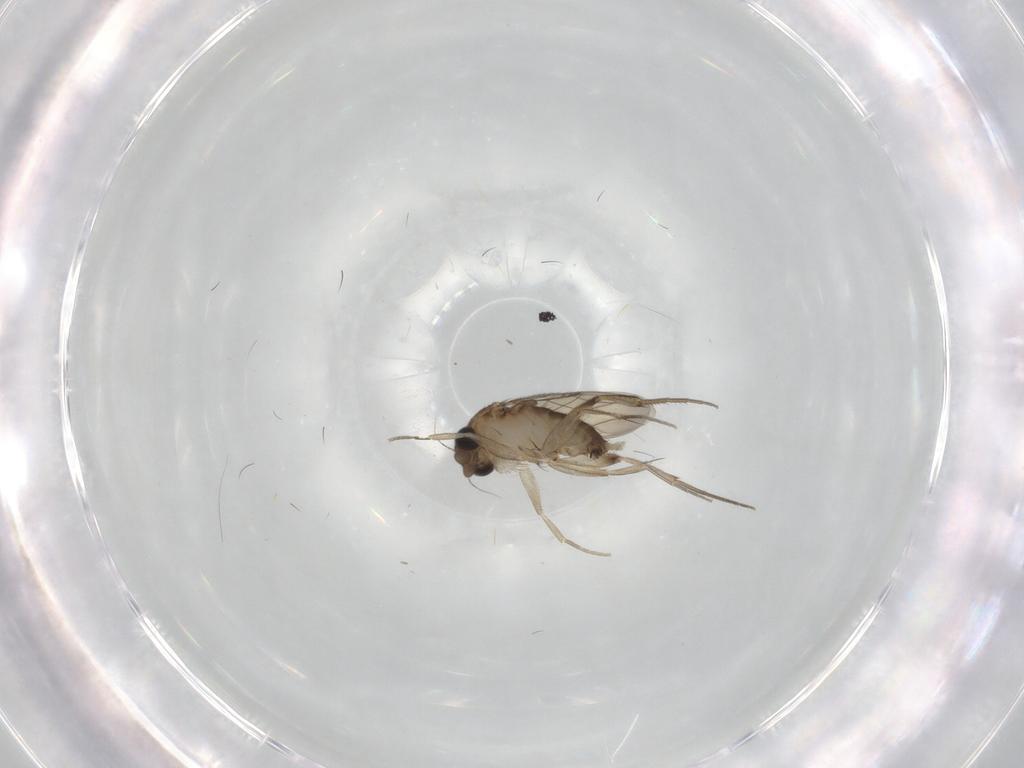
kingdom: Animalia
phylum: Arthropoda
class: Insecta
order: Diptera
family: Phoridae
